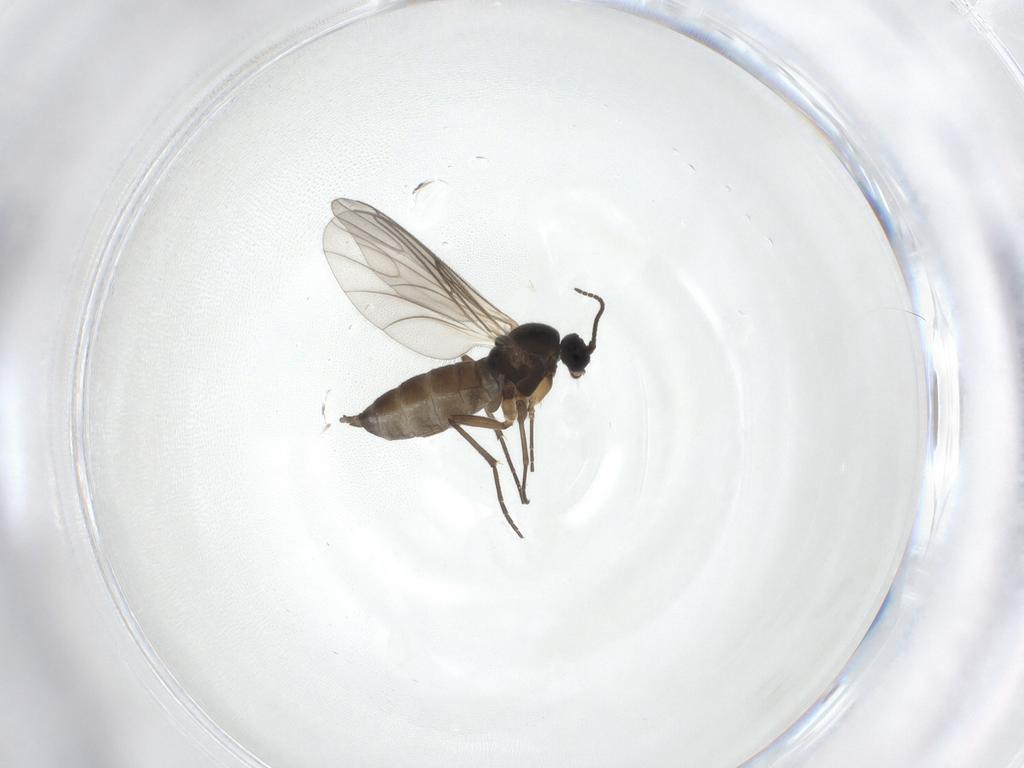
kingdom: Animalia
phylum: Arthropoda
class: Insecta
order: Diptera
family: Sciaridae
